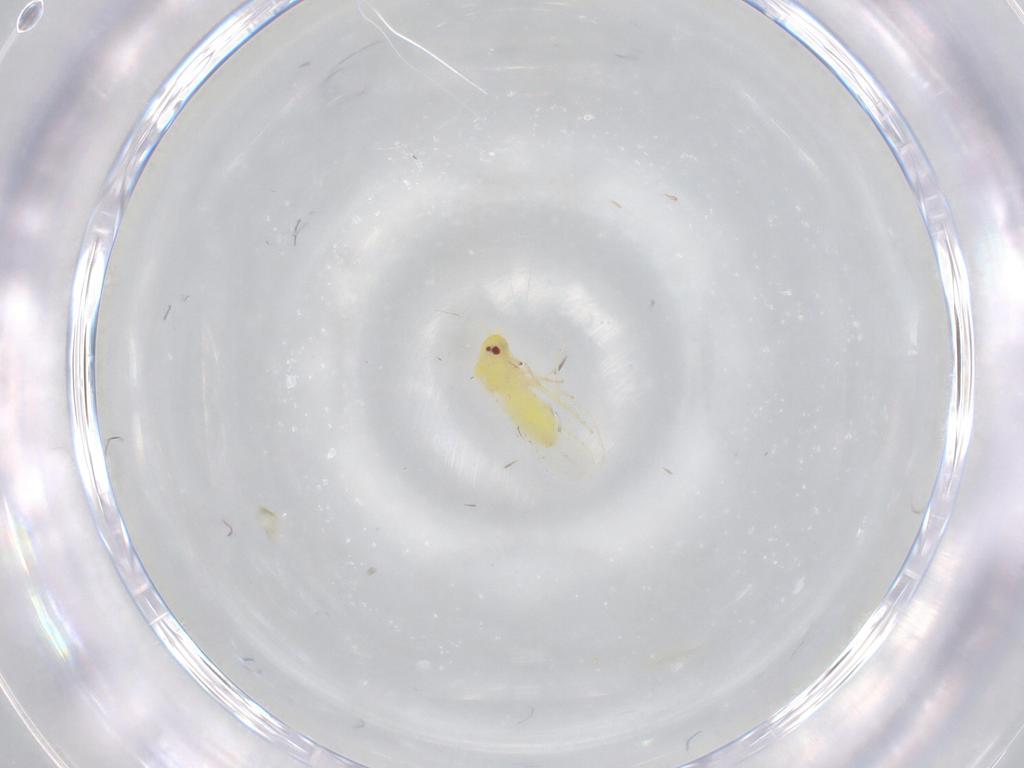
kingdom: Animalia
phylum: Arthropoda
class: Insecta
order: Hemiptera
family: Aleyrodidae
